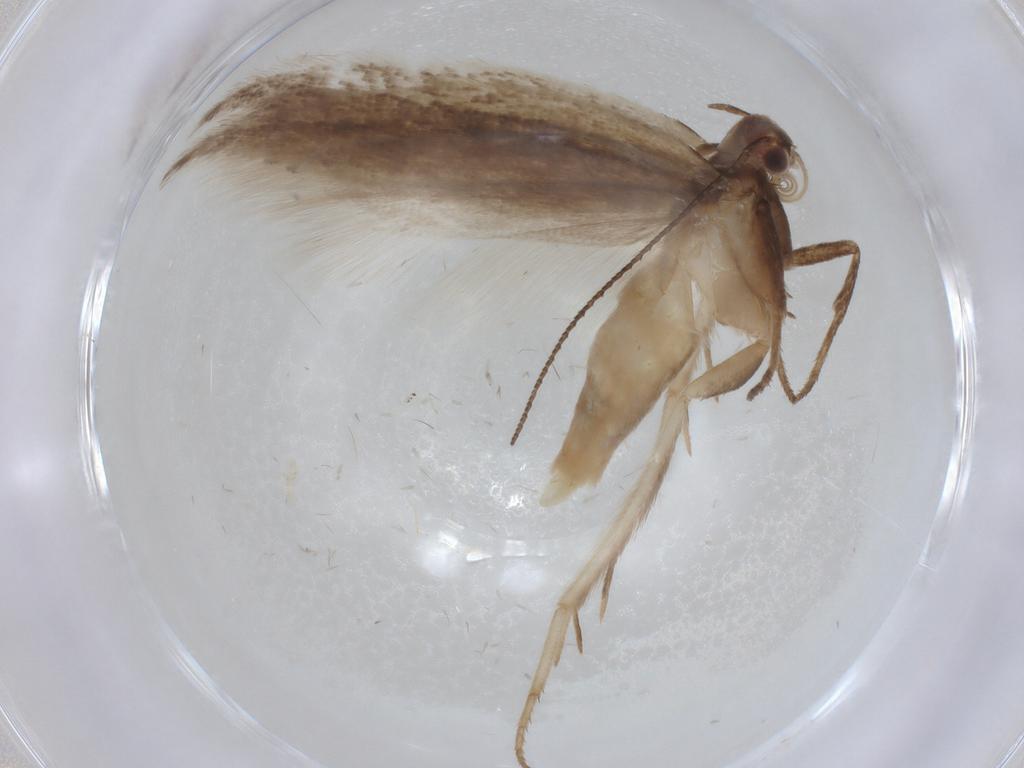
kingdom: Animalia
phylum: Arthropoda
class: Insecta
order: Lepidoptera
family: Gelechiidae
